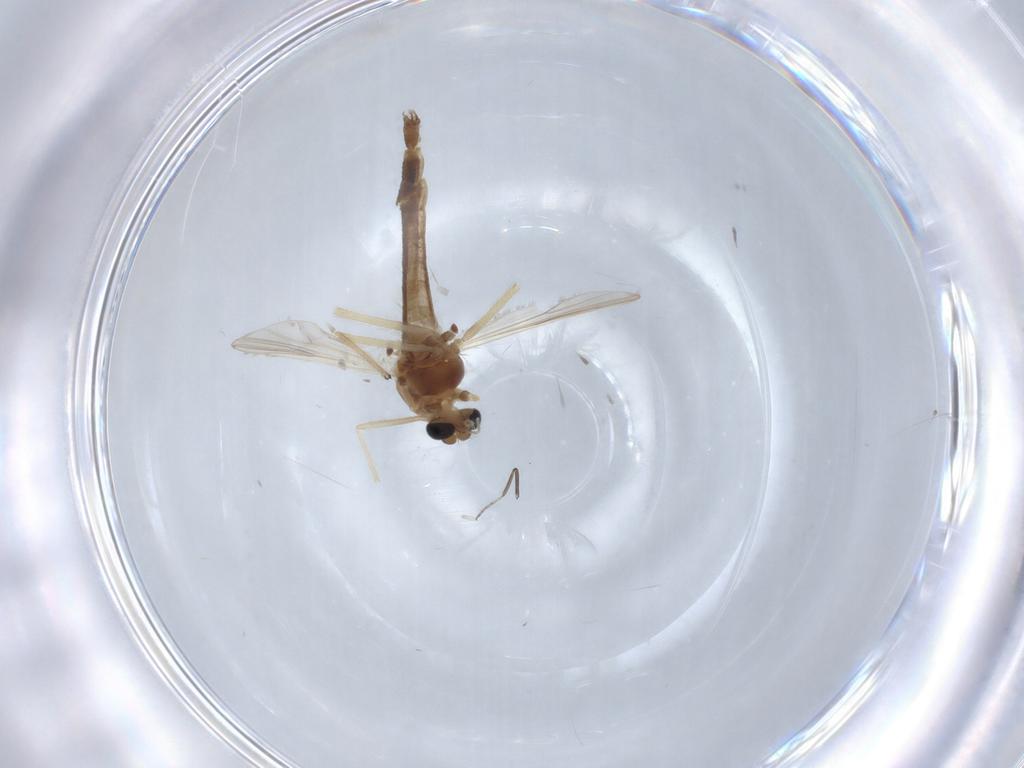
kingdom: Animalia
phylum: Arthropoda
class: Insecta
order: Diptera
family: Chironomidae
